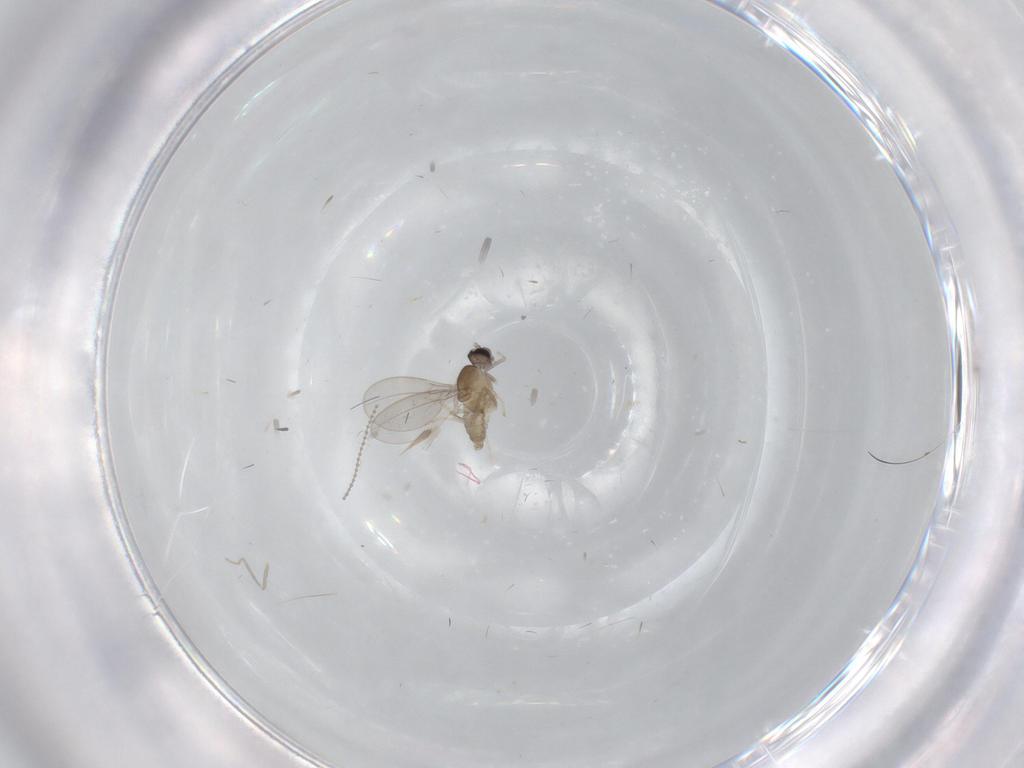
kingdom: Animalia
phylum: Arthropoda
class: Insecta
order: Diptera
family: Cecidomyiidae
